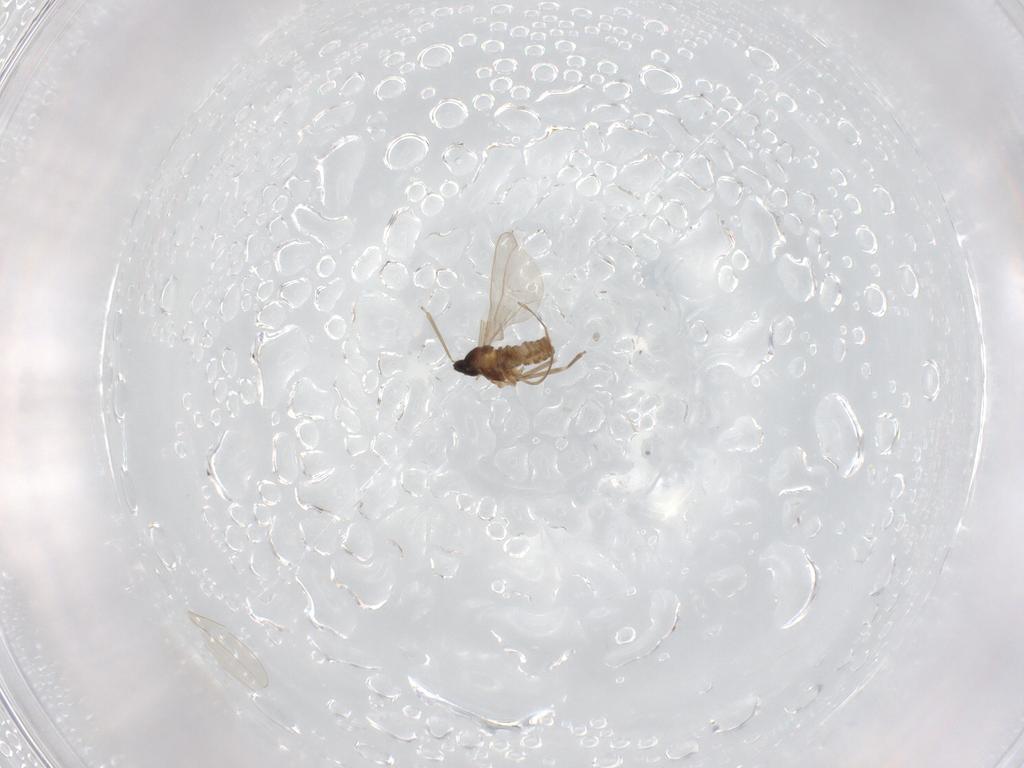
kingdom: Animalia
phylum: Arthropoda
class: Insecta
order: Diptera
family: Cecidomyiidae
